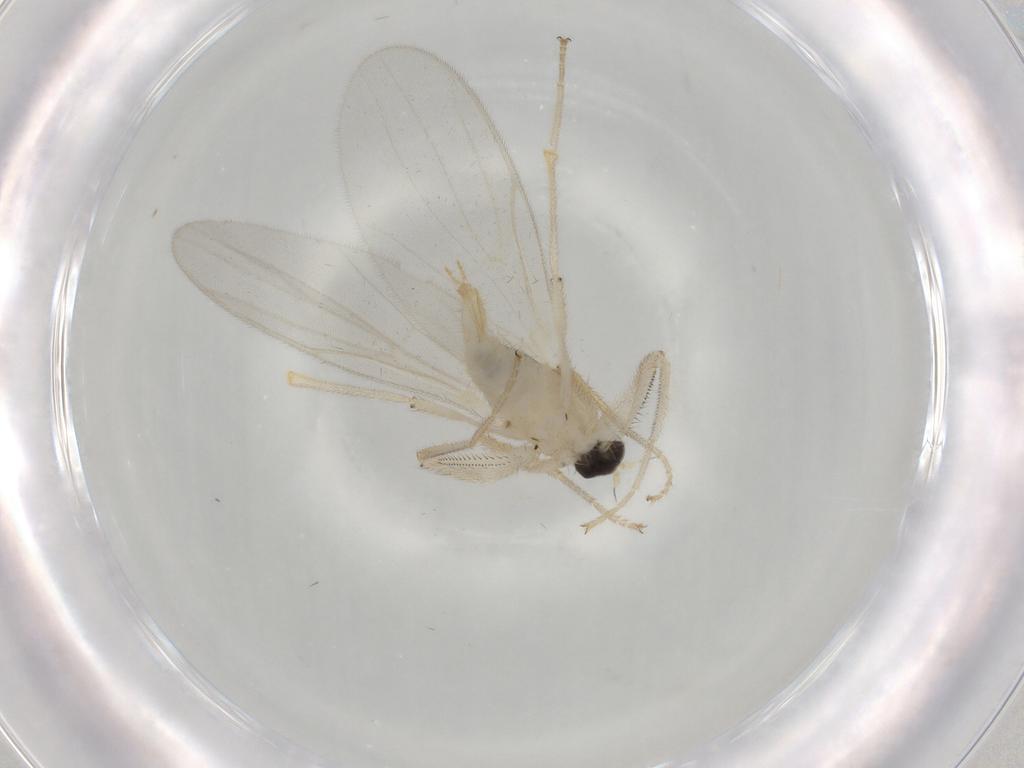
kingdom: Animalia
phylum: Arthropoda
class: Insecta
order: Diptera
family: Hybotidae
